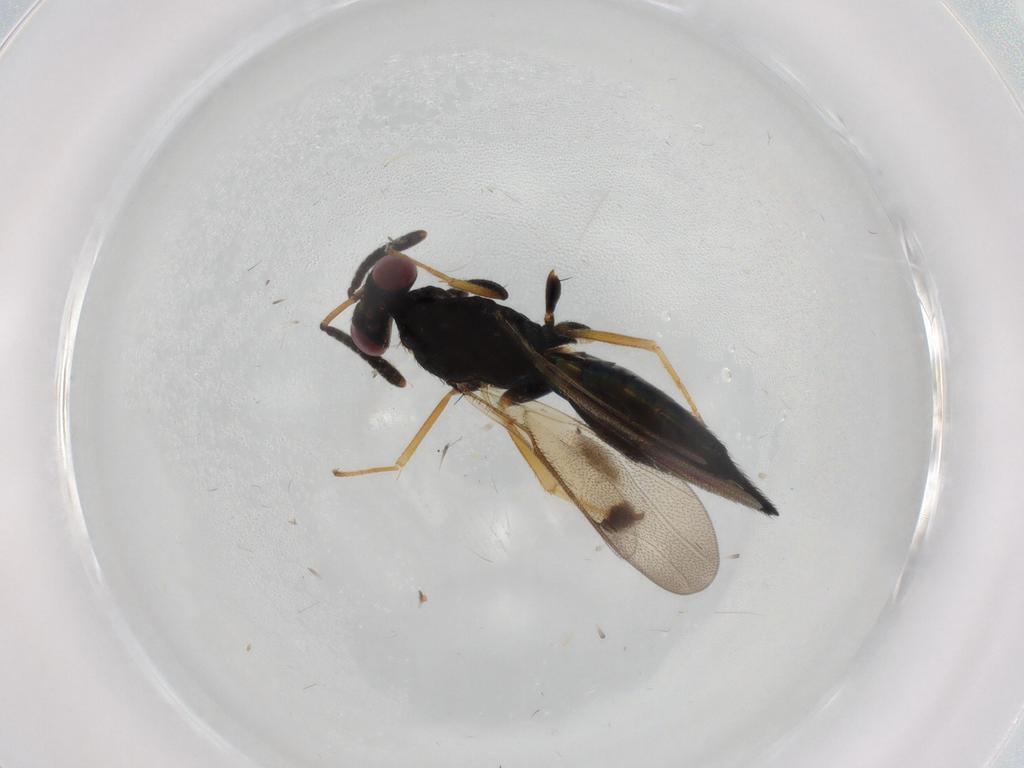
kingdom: Animalia
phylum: Arthropoda
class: Insecta
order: Hymenoptera
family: Pteromalidae
